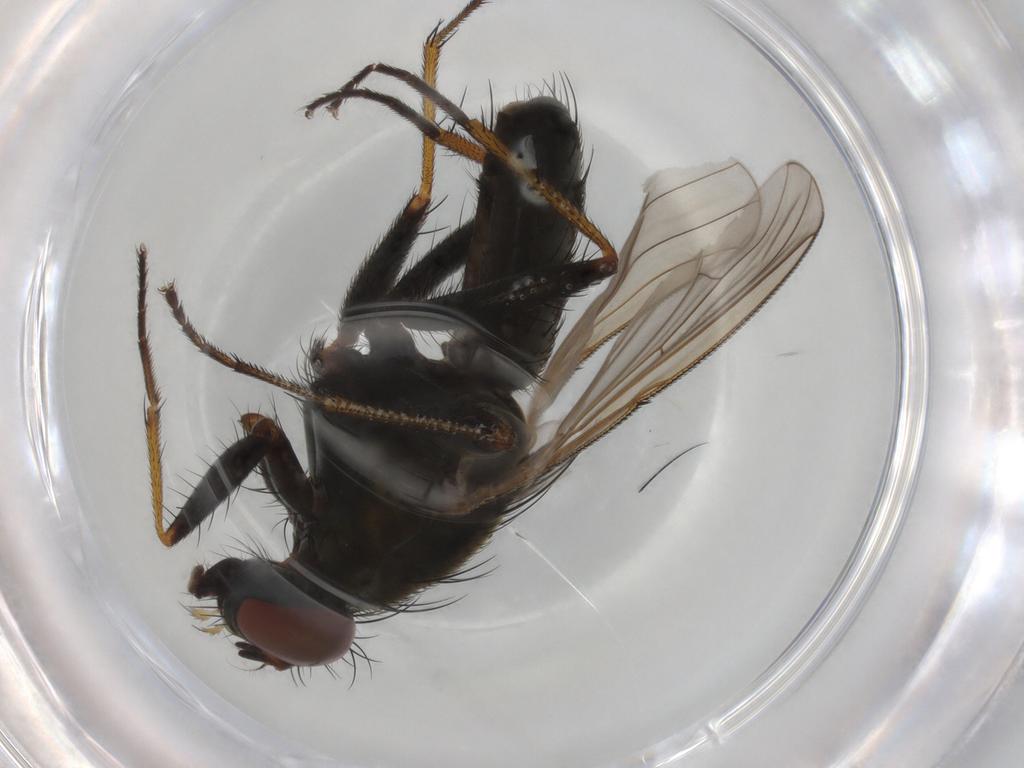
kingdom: Animalia
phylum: Arthropoda
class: Insecta
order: Diptera
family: Muscidae
